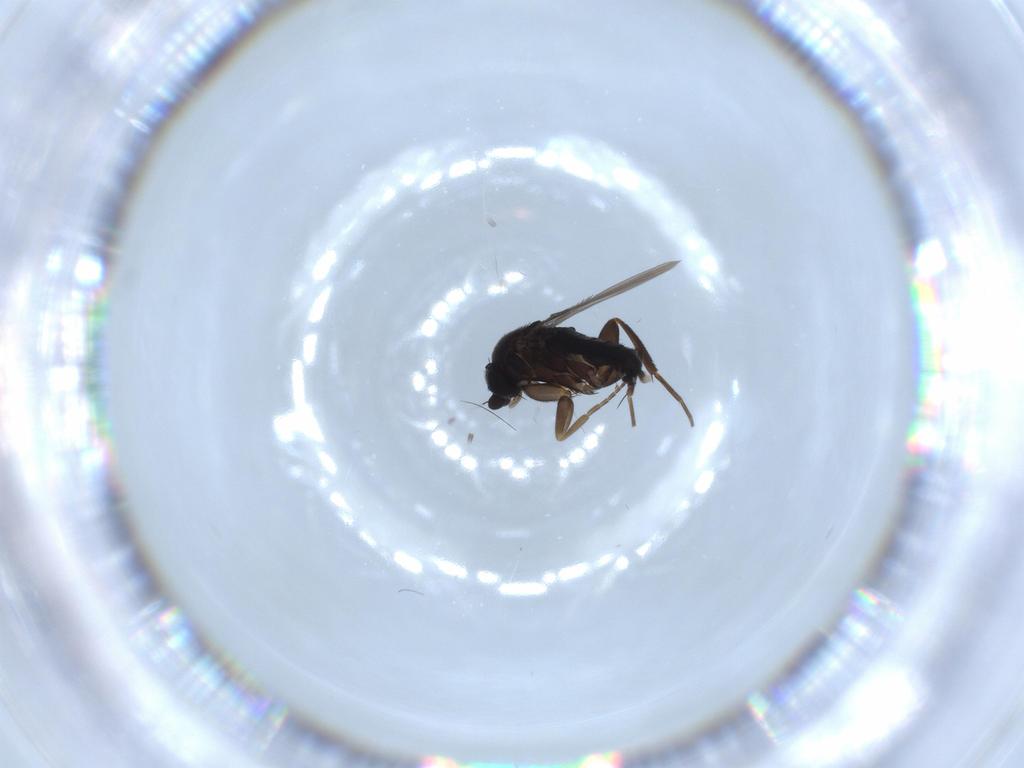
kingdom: Animalia
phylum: Arthropoda
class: Insecta
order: Diptera
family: Phoridae
